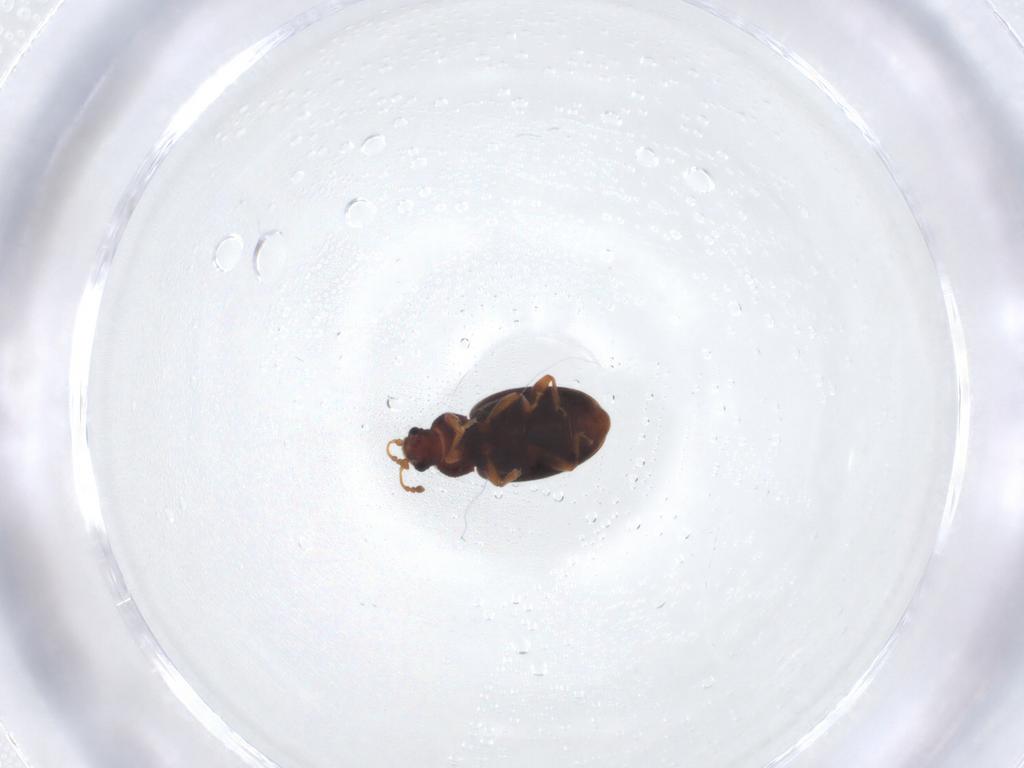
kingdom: Animalia
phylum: Arthropoda
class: Insecta
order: Coleoptera
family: Latridiidae
